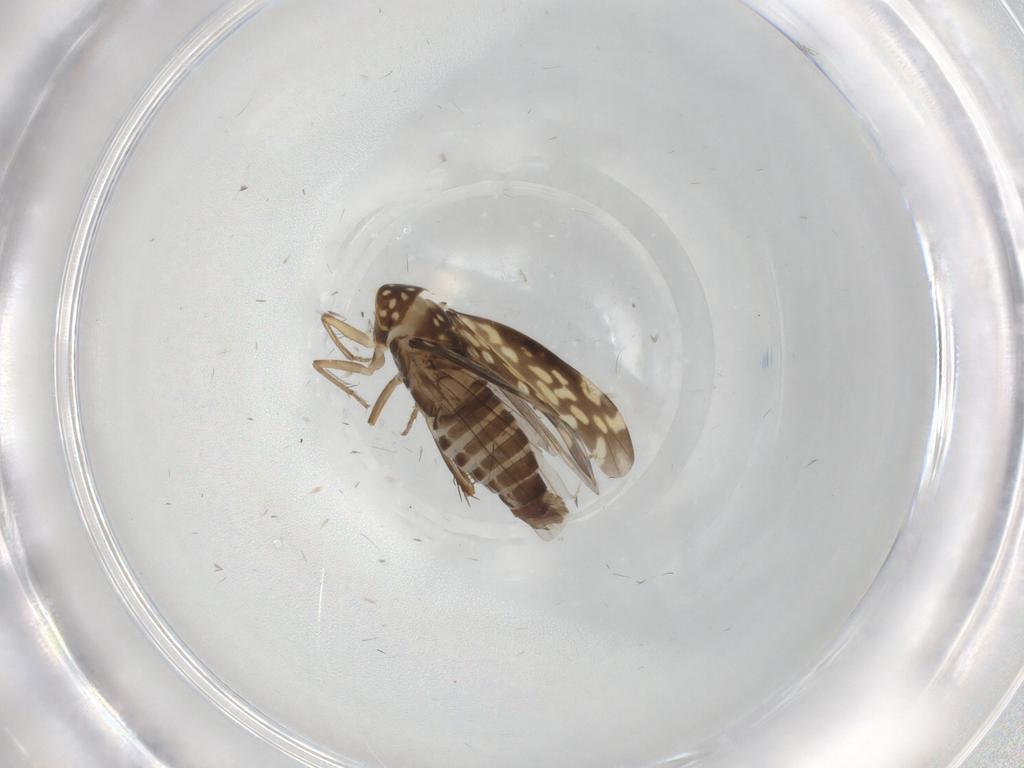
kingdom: Animalia
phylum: Arthropoda
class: Insecta
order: Hemiptera
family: Cicadellidae
